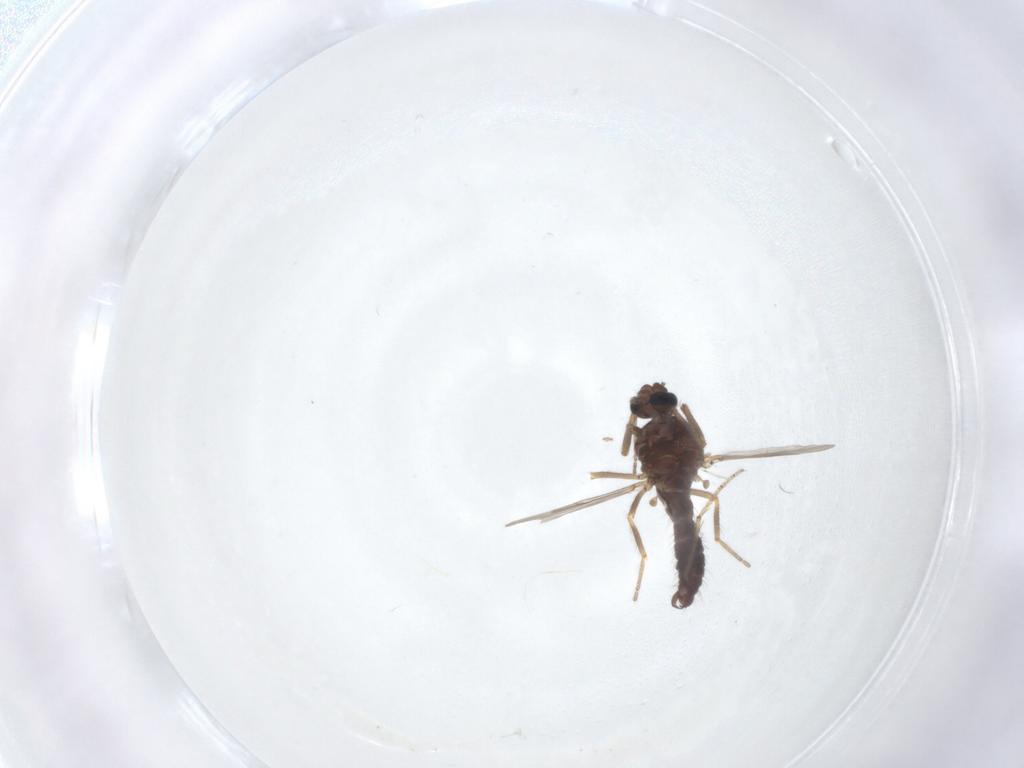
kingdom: Animalia
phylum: Arthropoda
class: Insecta
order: Diptera
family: Ceratopogonidae
